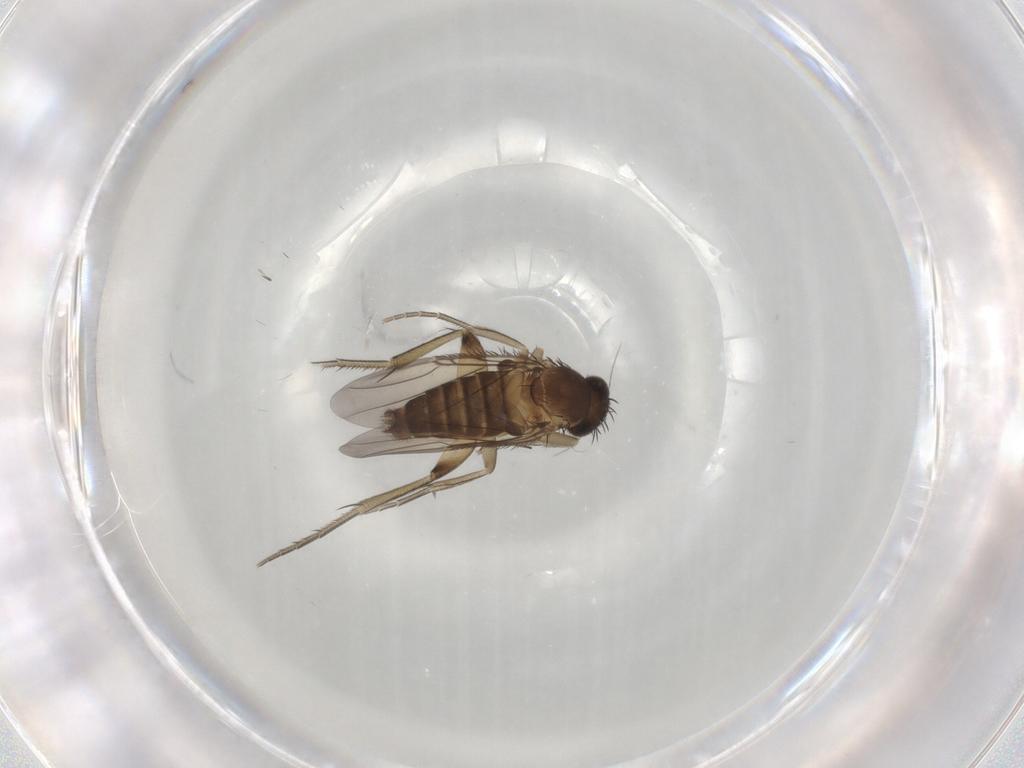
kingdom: Animalia
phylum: Arthropoda
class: Insecta
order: Diptera
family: Phoridae
